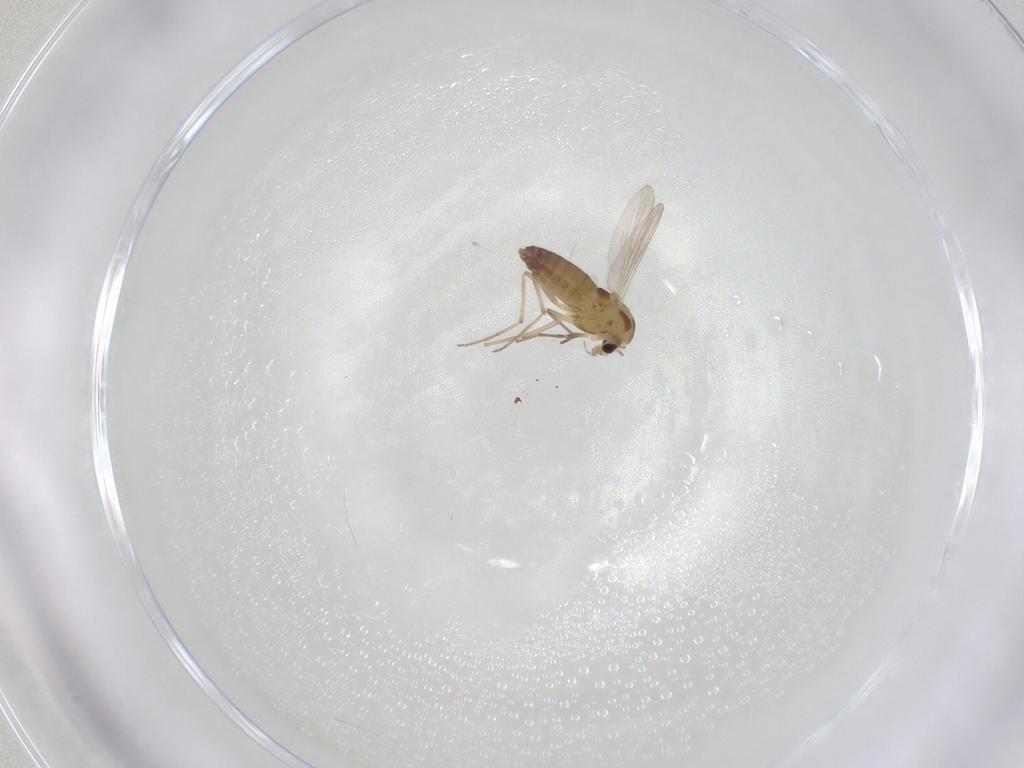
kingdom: Animalia
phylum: Arthropoda
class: Insecta
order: Diptera
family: Chironomidae
